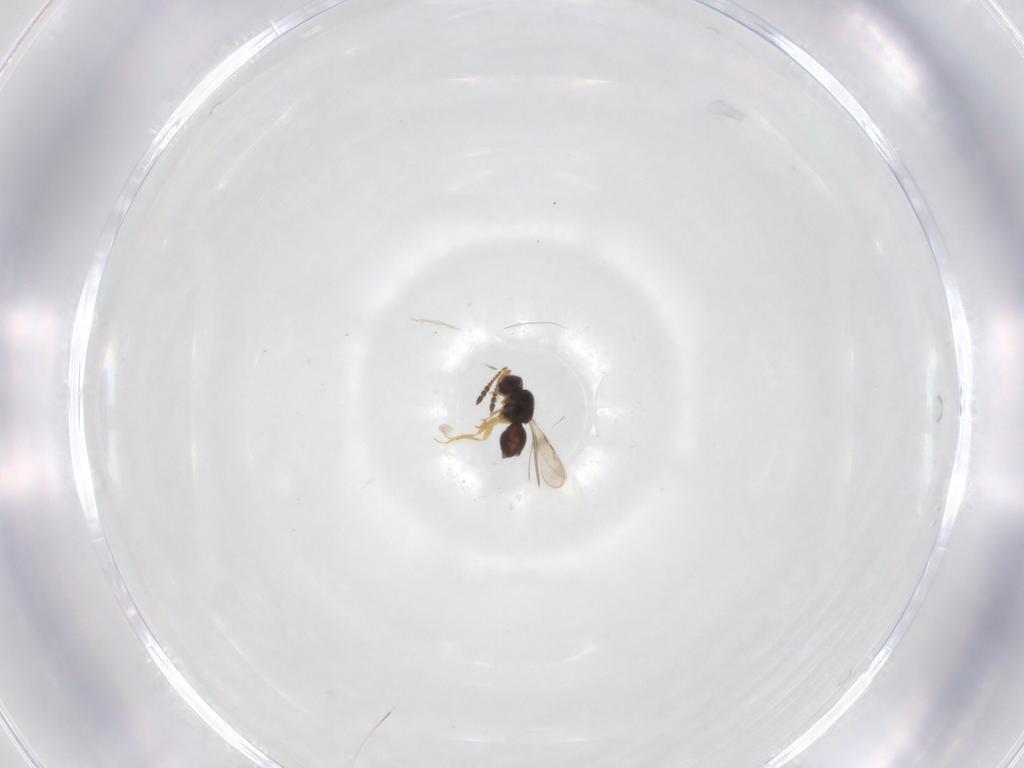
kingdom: Animalia
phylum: Arthropoda
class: Insecta
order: Hymenoptera
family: Ceraphronidae
